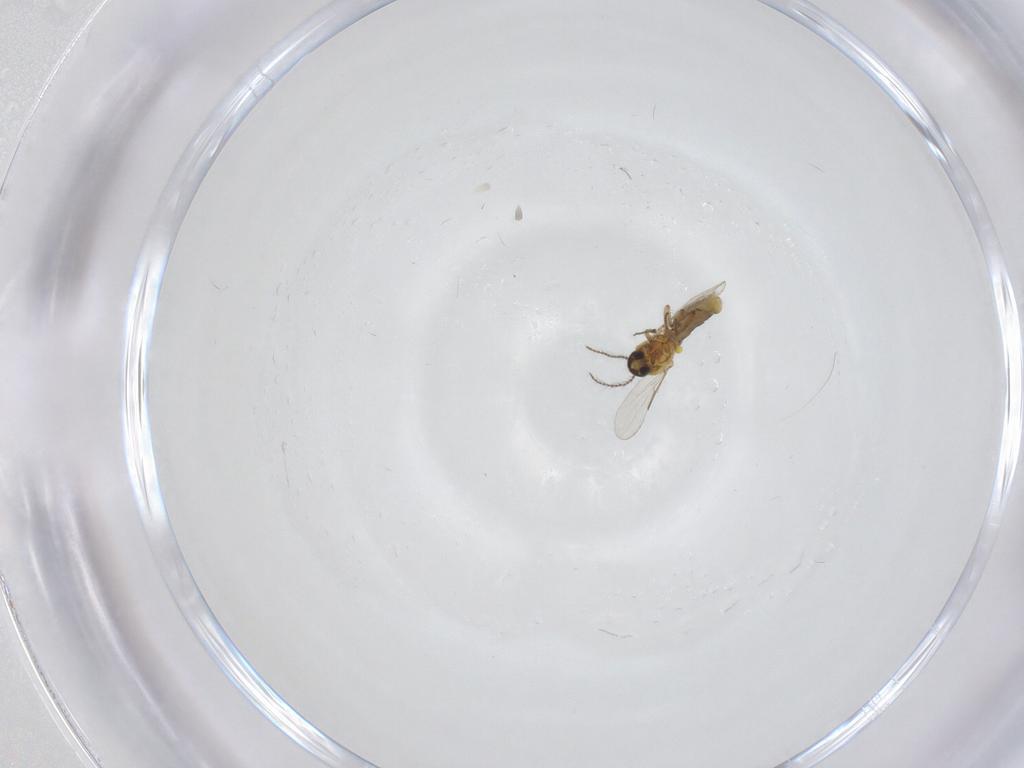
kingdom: Animalia
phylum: Arthropoda
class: Insecta
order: Diptera
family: Ceratopogonidae
